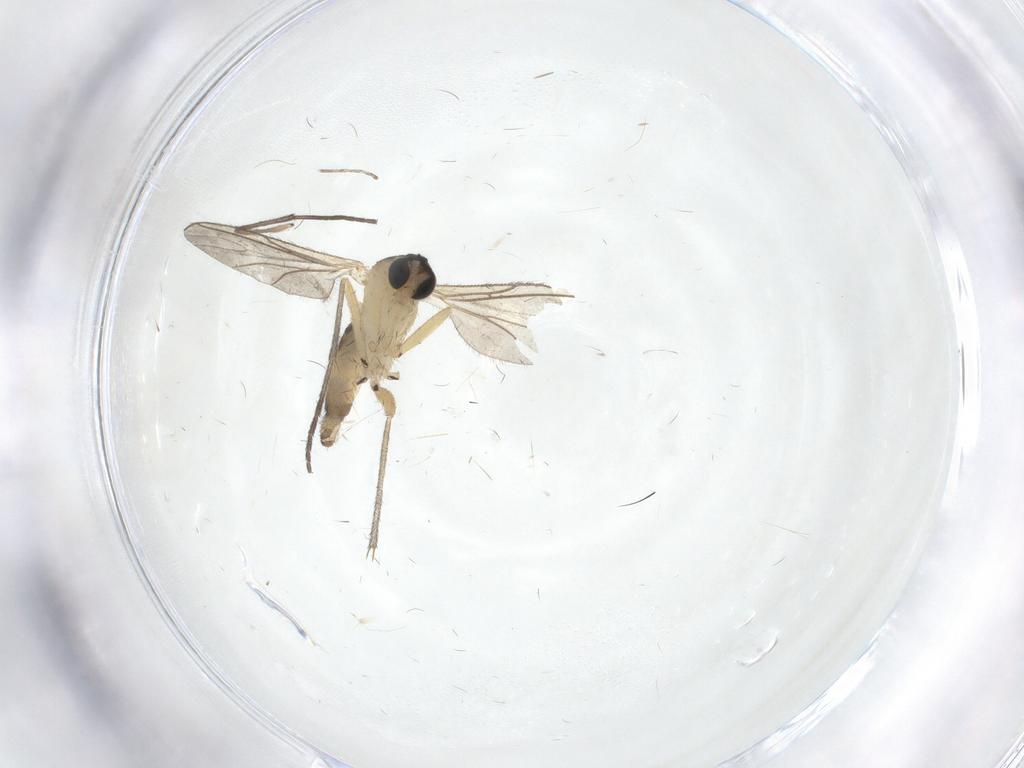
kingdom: Animalia
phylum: Arthropoda
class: Insecta
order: Diptera
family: Sciaridae
